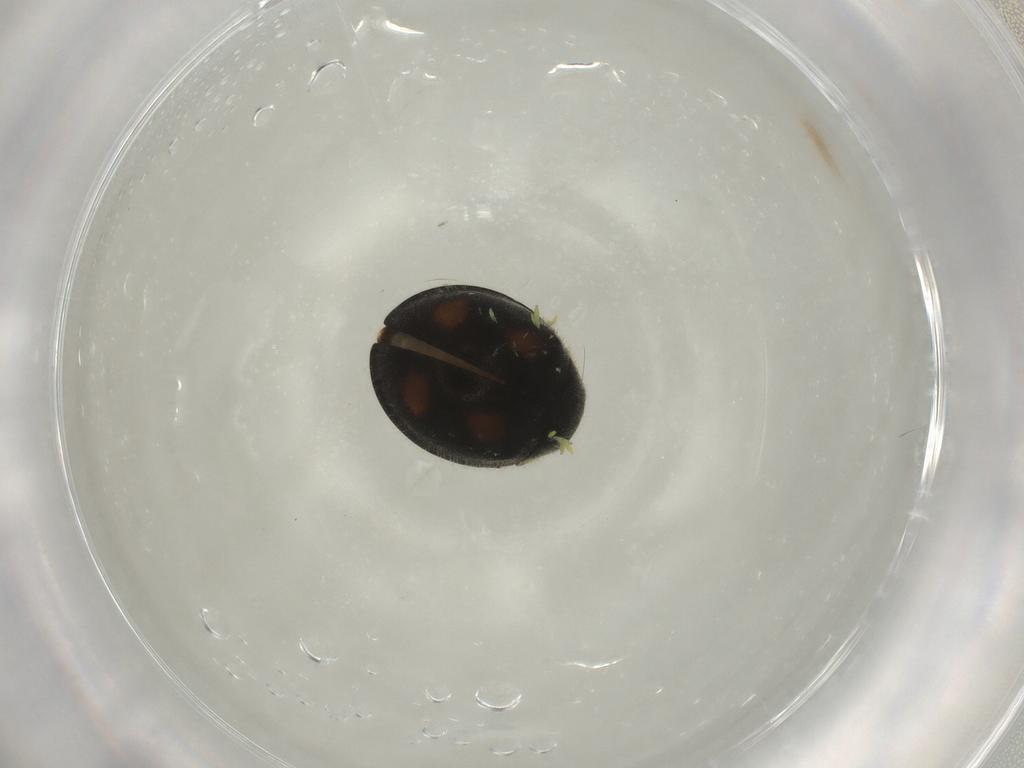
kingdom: Animalia
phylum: Arthropoda
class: Insecta
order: Coleoptera
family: Coccinellidae
